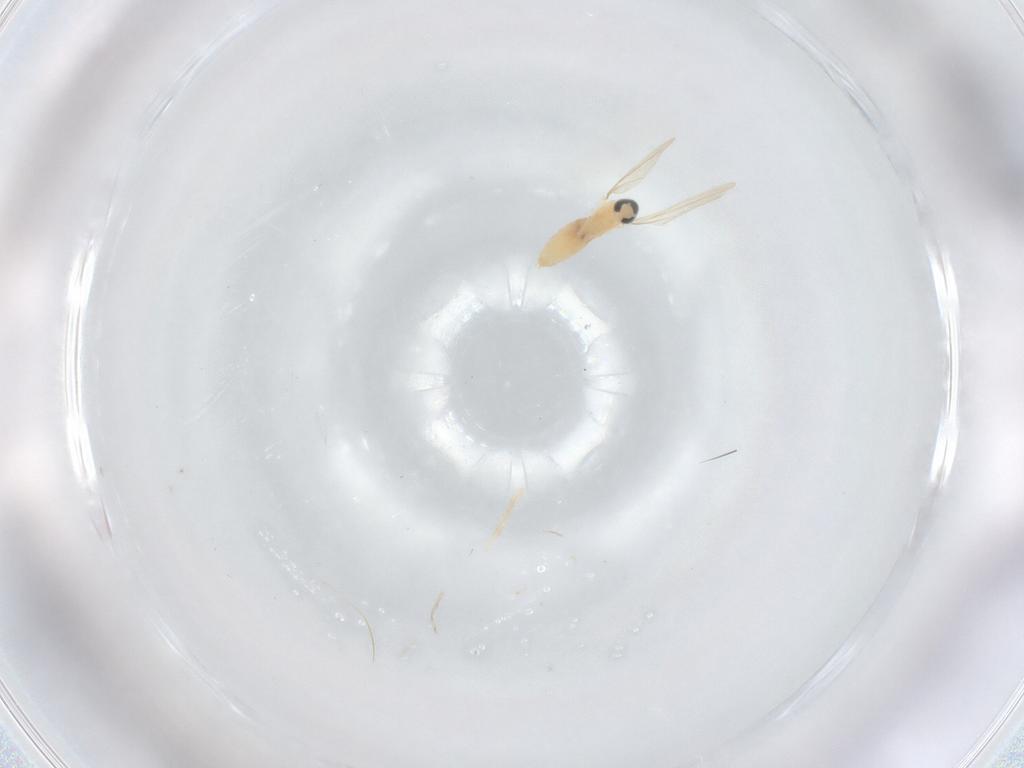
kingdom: Animalia
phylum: Arthropoda
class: Insecta
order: Diptera
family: Cecidomyiidae
